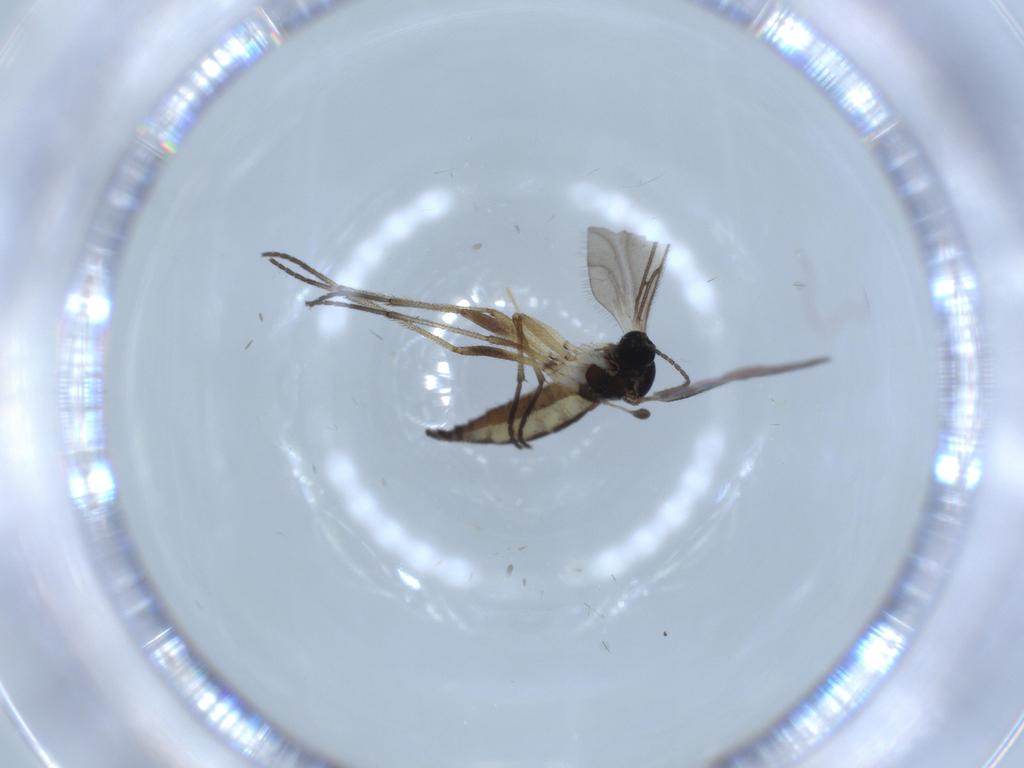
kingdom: Animalia
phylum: Arthropoda
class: Insecta
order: Diptera
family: Sciaridae
